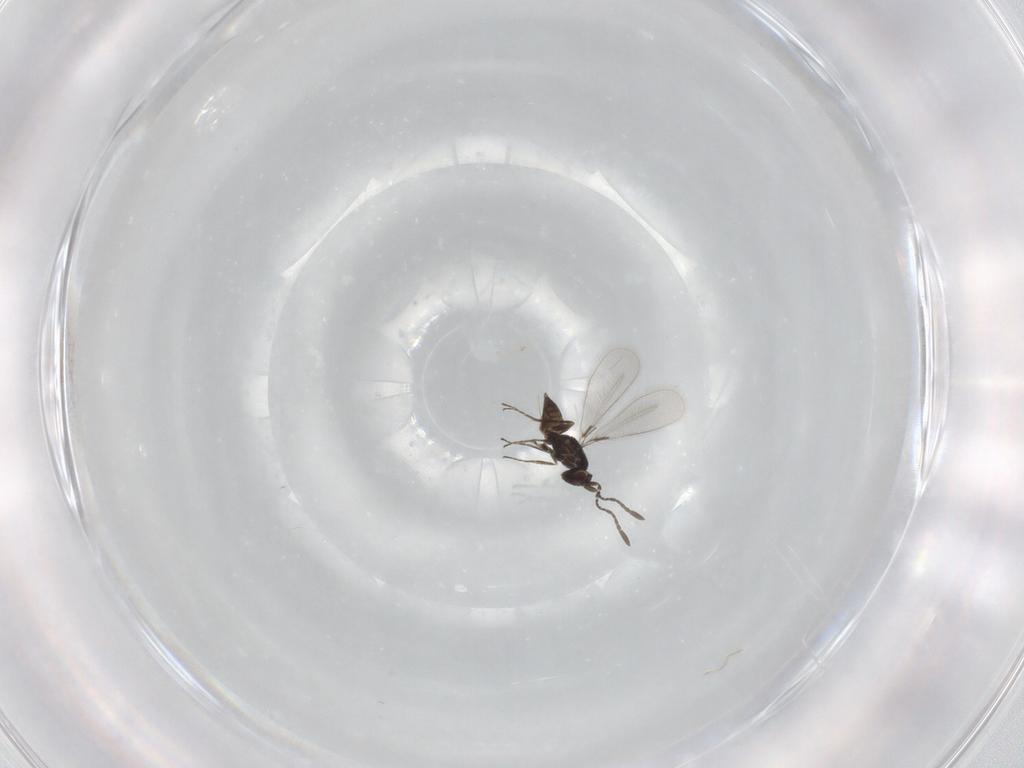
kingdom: Animalia
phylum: Arthropoda
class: Insecta
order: Hymenoptera
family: Mymaridae
